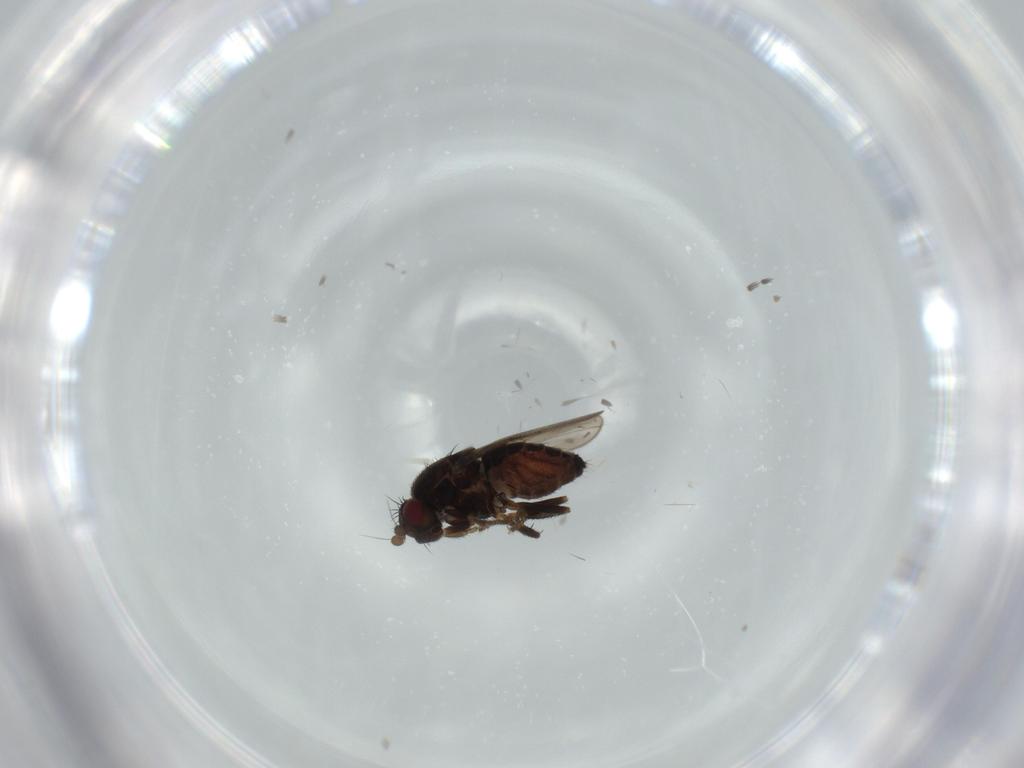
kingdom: Animalia
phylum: Arthropoda
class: Insecta
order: Diptera
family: Sphaeroceridae
